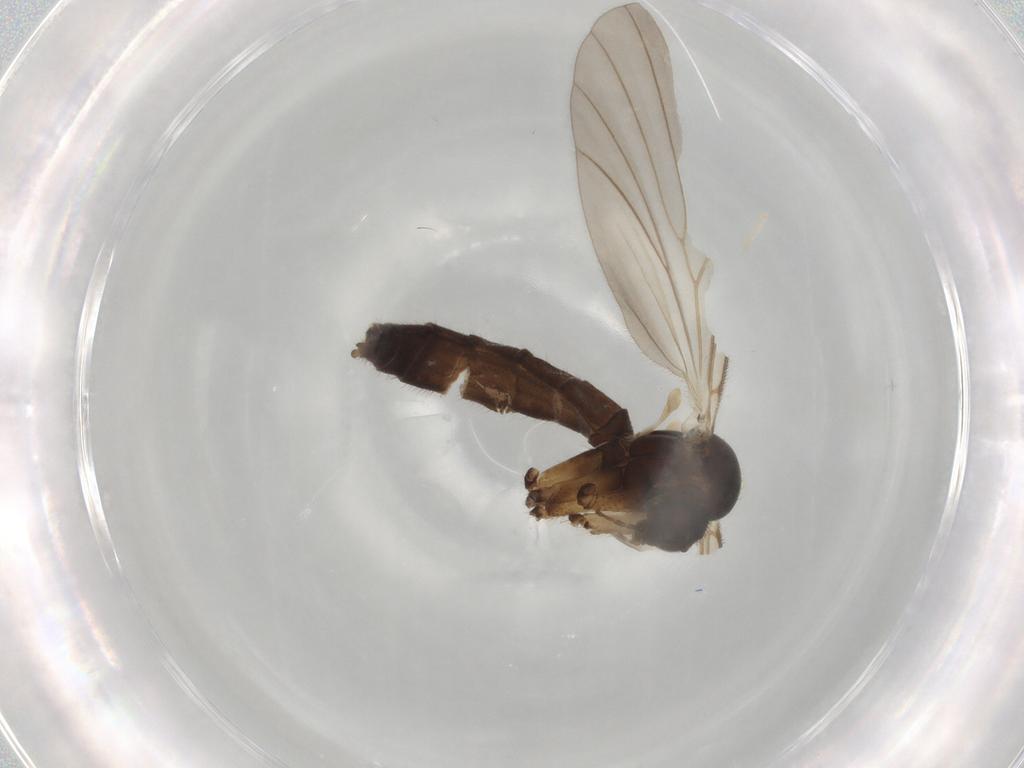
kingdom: Animalia
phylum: Arthropoda
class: Insecta
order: Diptera
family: Mycetophilidae
